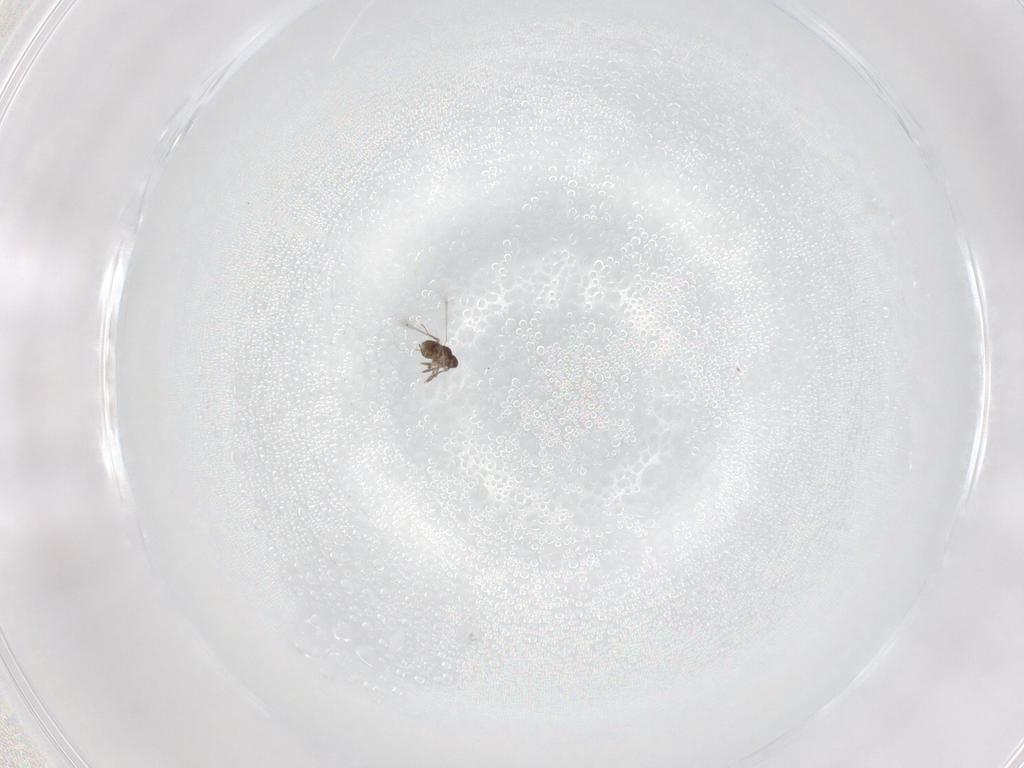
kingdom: Animalia
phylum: Arthropoda
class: Insecta
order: Hymenoptera
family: Mymaridae
